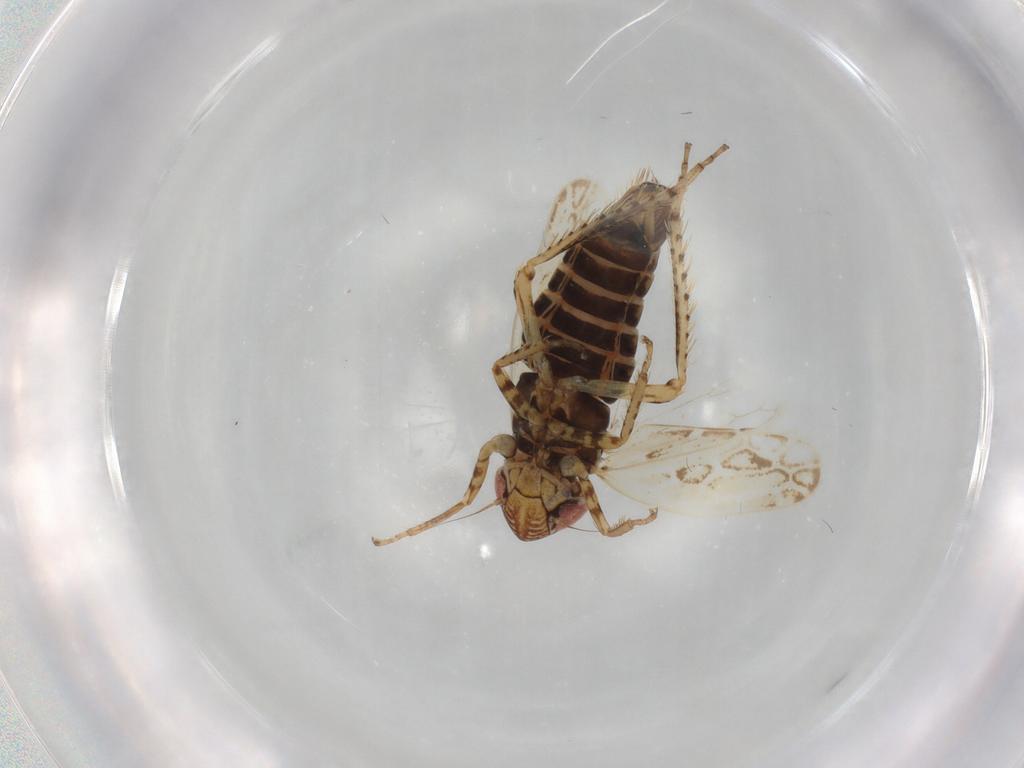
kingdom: Animalia
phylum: Arthropoda
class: Insecta
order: Hemiptera
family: Cicadellidae
